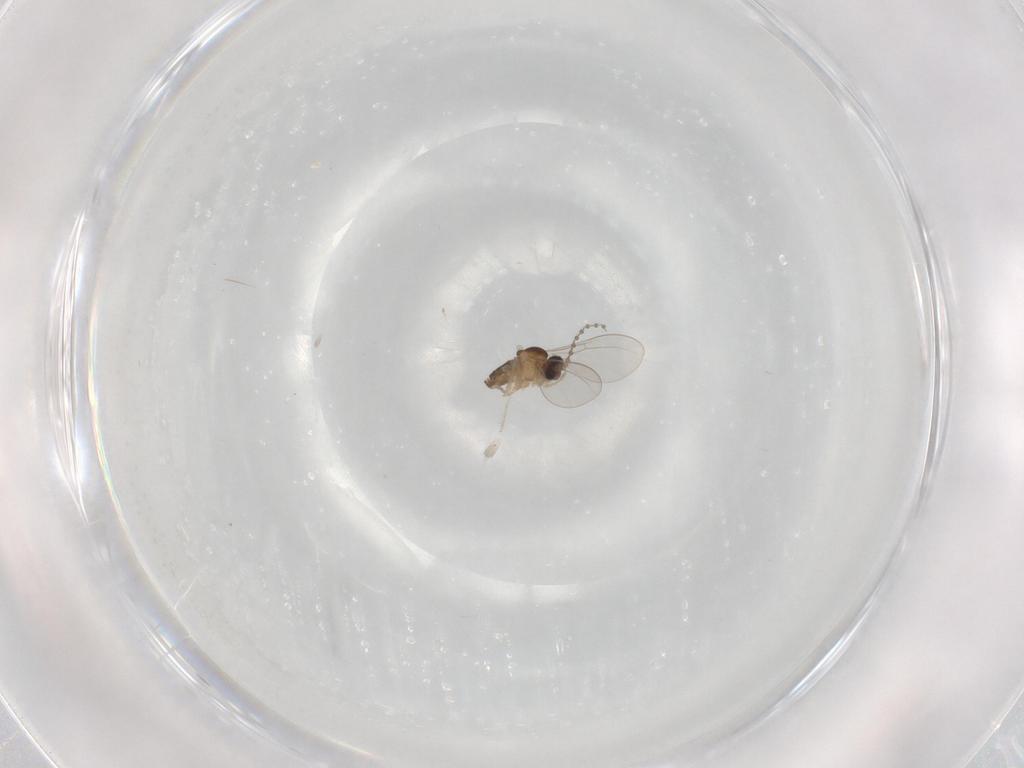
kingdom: Animalia
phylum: Arthropoda
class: Insecta
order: Diptera
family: Cecidomyiidae
